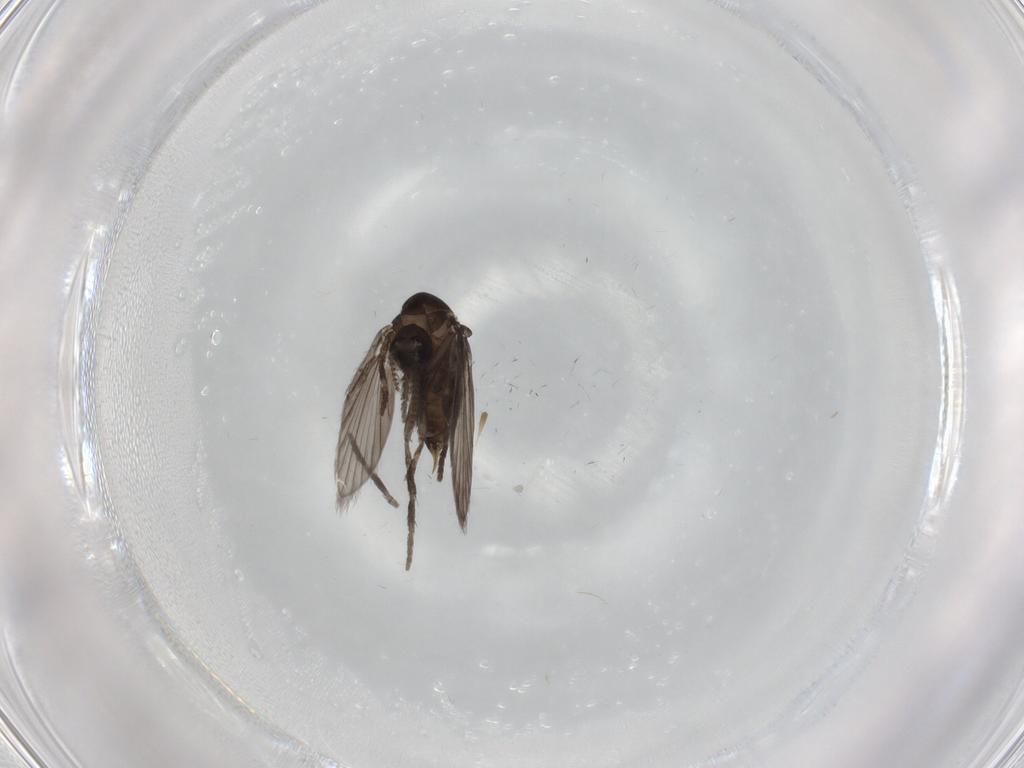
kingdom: Animalia
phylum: Arthropoda
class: Insecta
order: Diptera
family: Psychodidae
